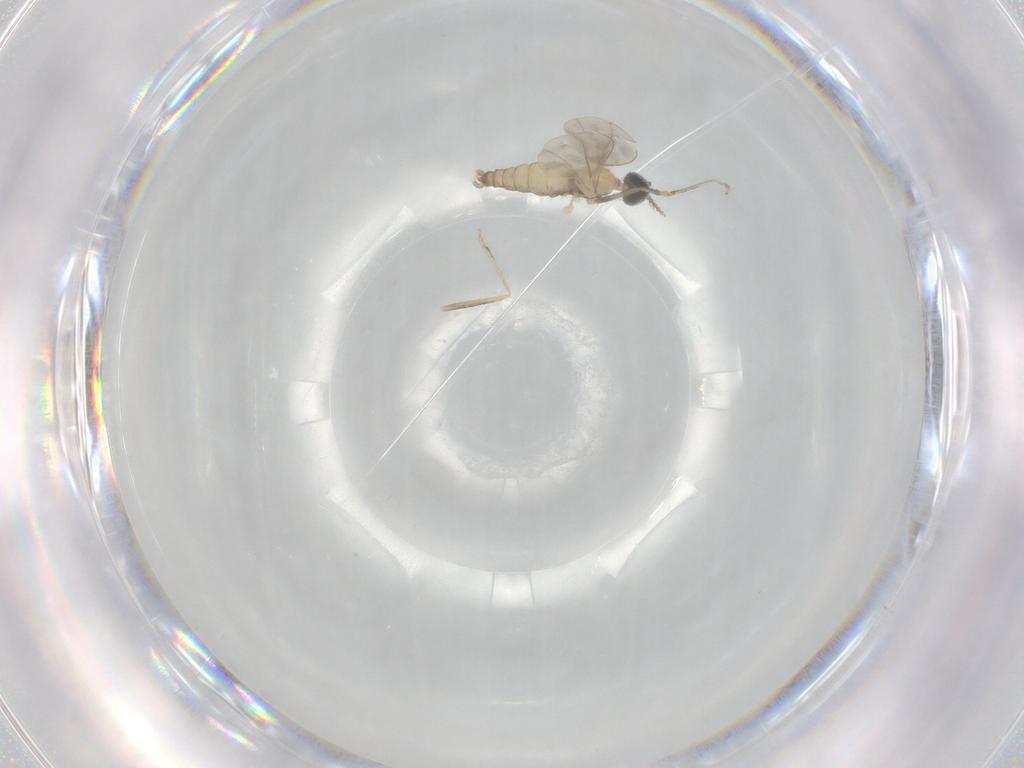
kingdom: Animalia
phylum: Arthropoda
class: Insecta
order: Diptera
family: Cecidomyiidae
